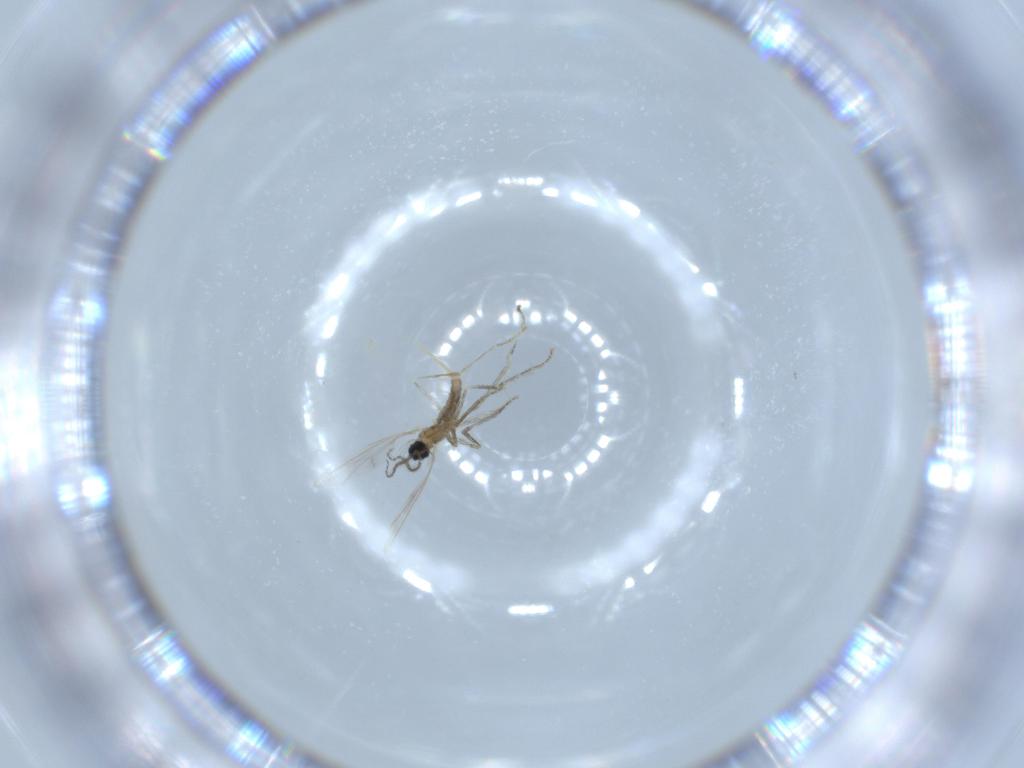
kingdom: Animalia
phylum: Arthropoda
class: Insecta
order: Diptera
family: Cecidomyiidae
